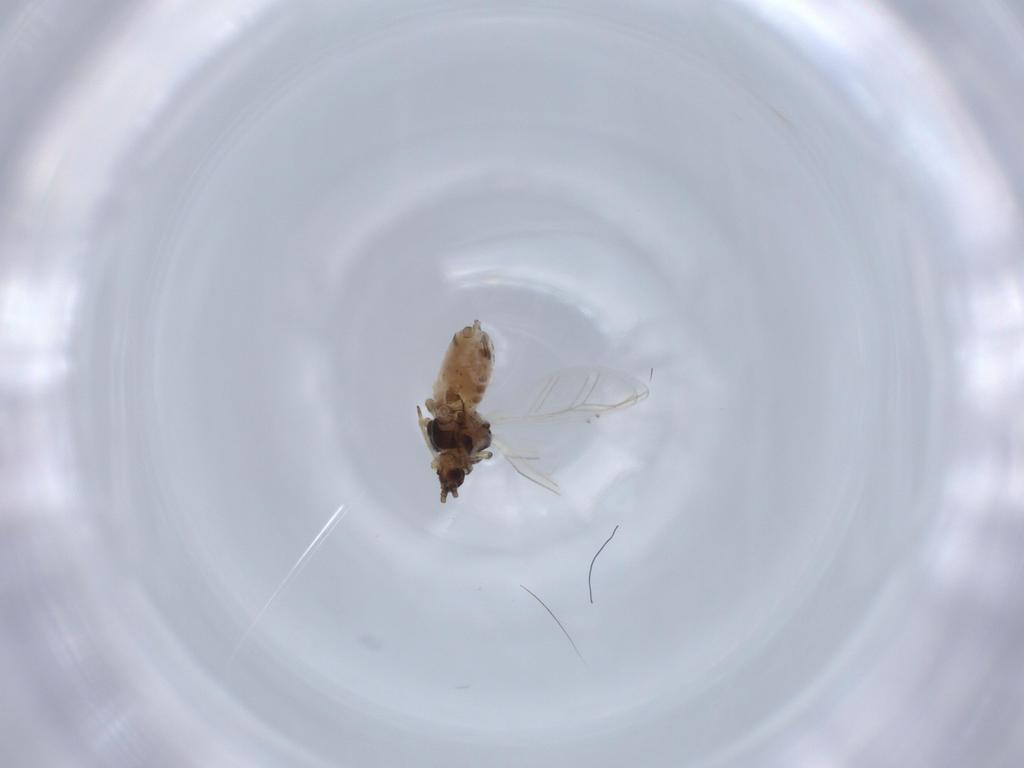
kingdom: Animalia
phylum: Arthropoda
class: Insecta
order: Hemiptera
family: Aphididae
